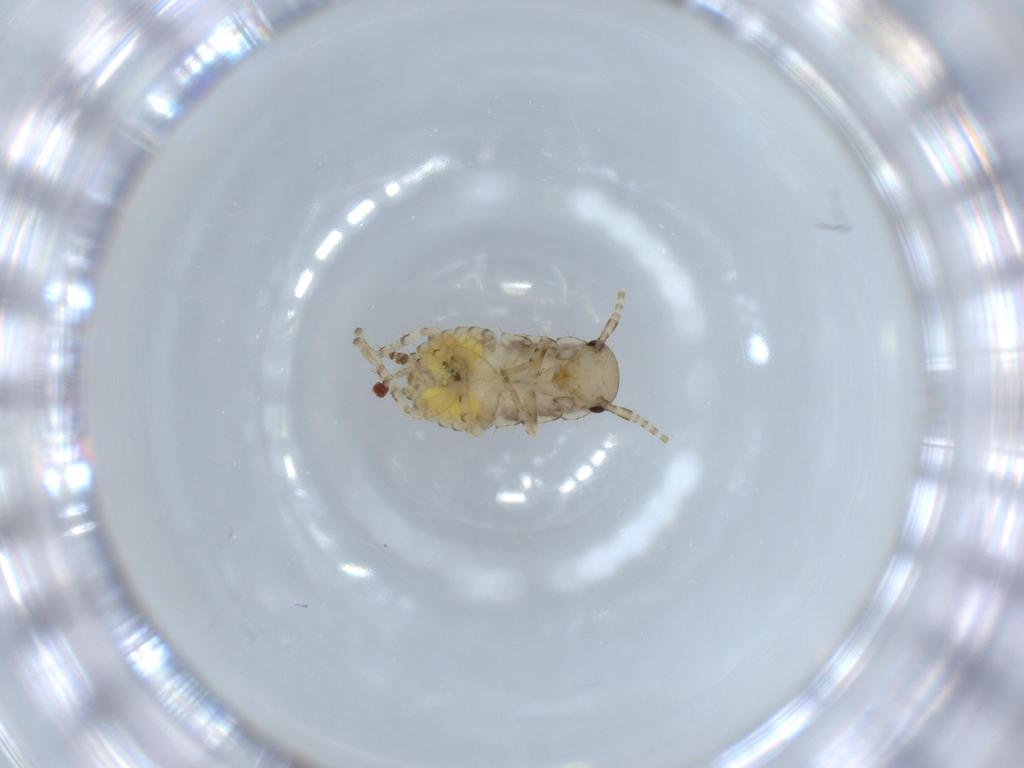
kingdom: Animalia
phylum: Arthropoda
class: Insecta
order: Blattodea
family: Ectobiidae
